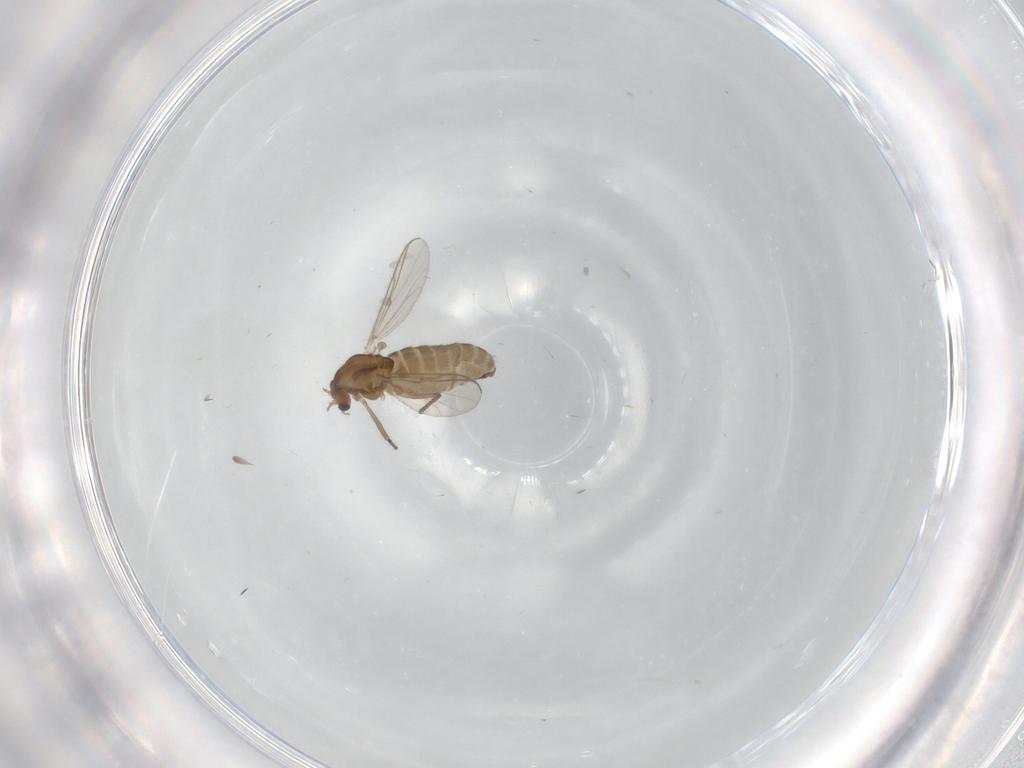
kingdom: Animalia
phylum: Arthropoda
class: Insecta
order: Diptera
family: Chironomidae
